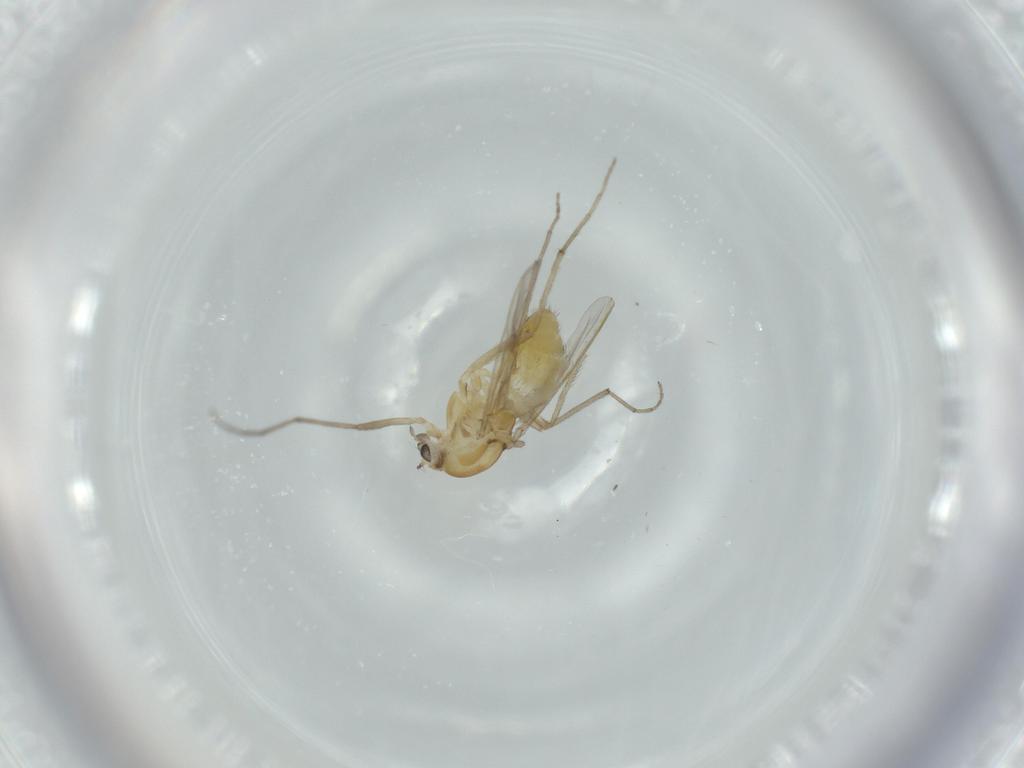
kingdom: Animalia
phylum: Arthropoda
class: Insecta
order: Diptera
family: Chironomidae
